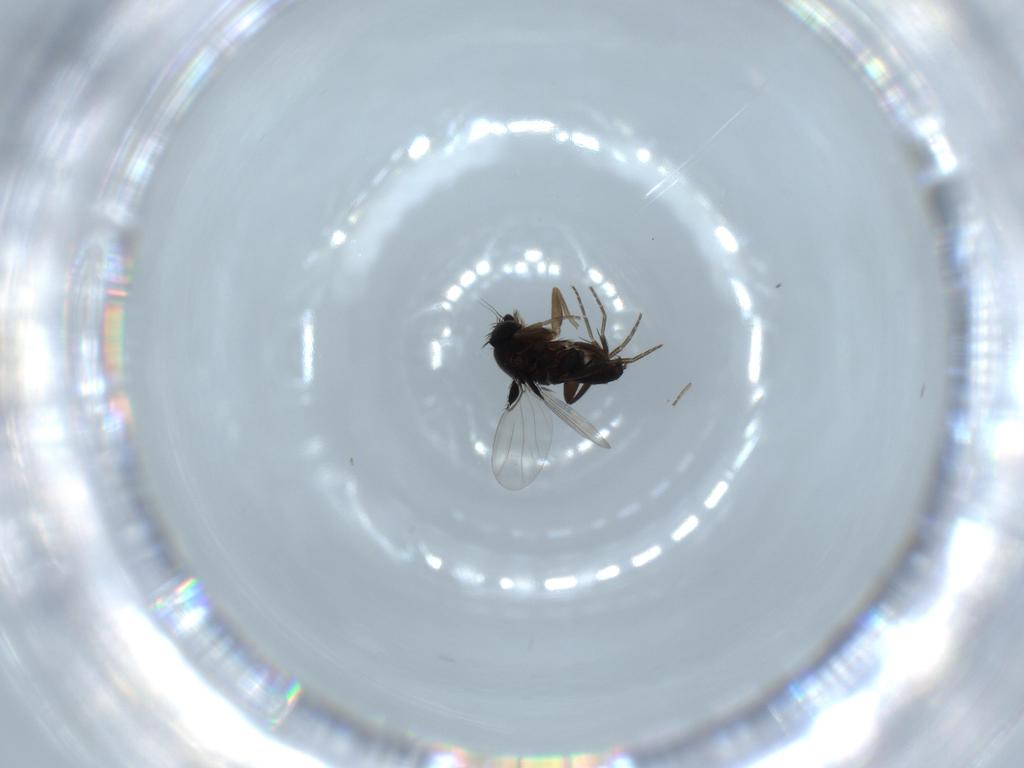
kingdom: Animalia
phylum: Arthropoda
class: Insecta
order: Diptera
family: Phoridae
